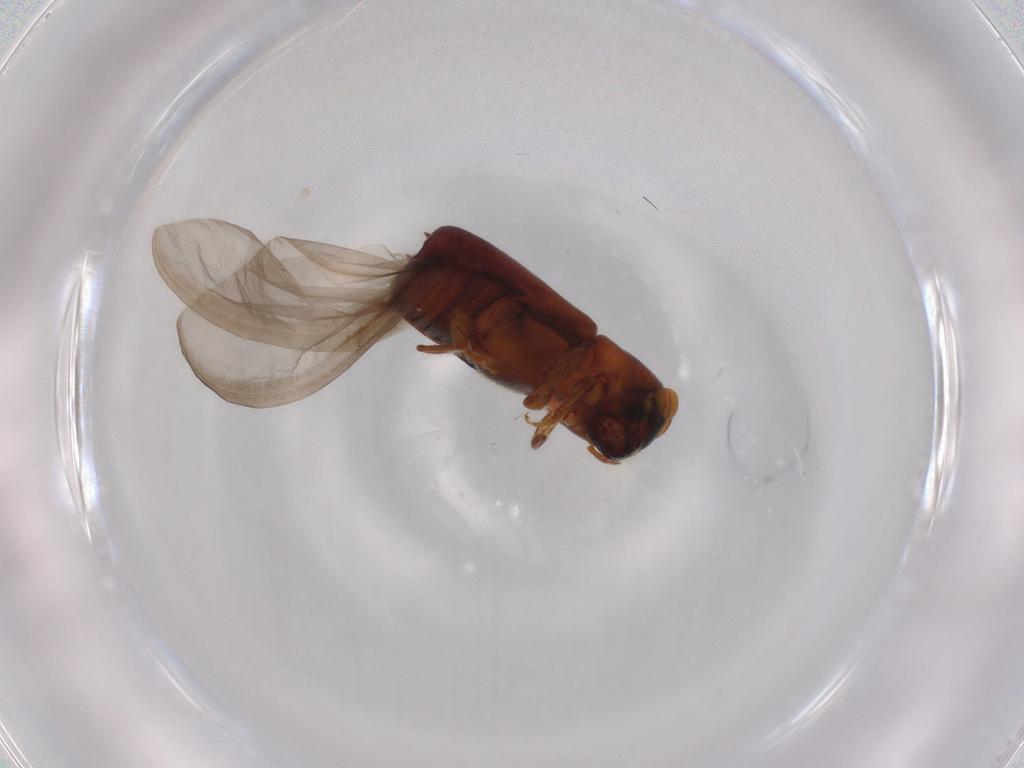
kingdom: Animalia
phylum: Arthropoda
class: Insecta
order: Coleoptera
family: Curculionidae
